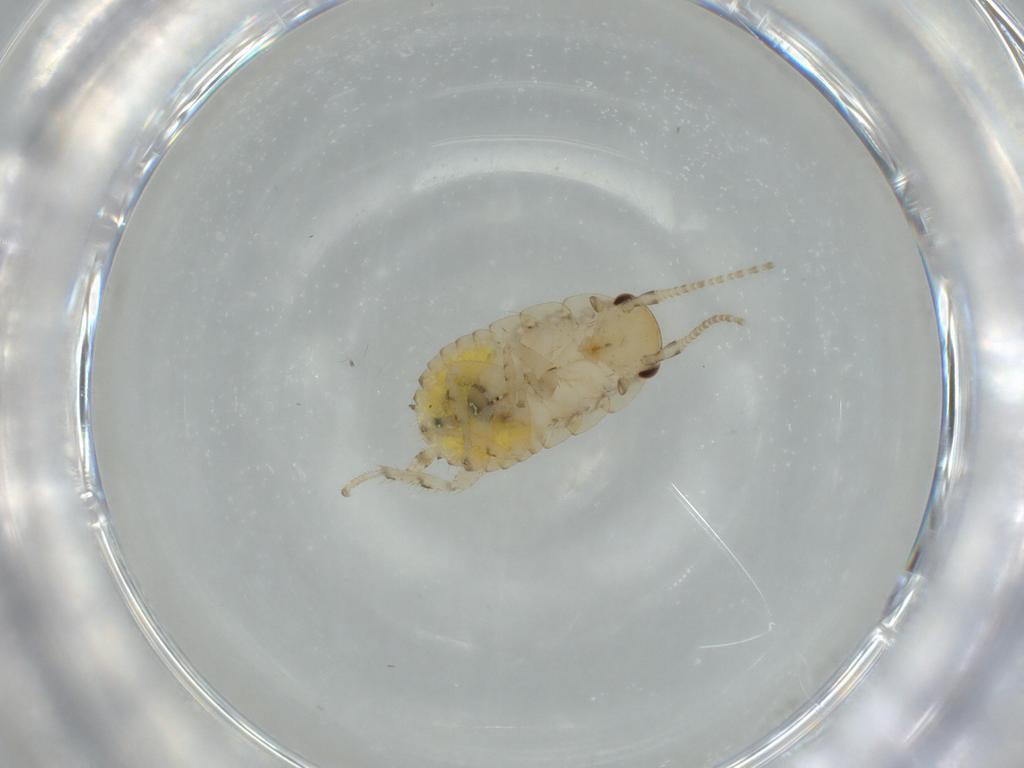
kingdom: Animalia
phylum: Arthropoda
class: Insecta
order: Blattodea
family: Ectobiidae
